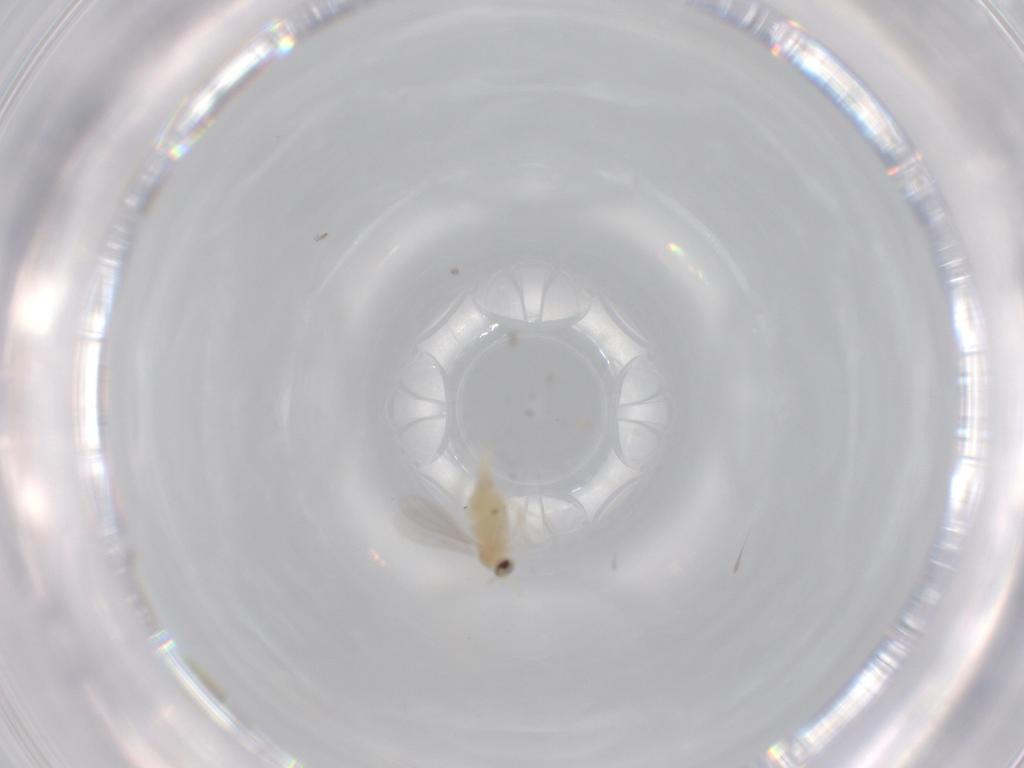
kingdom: Animalia
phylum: Arthropoda
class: Insecta
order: Diptera
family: Cecidomyiidae
